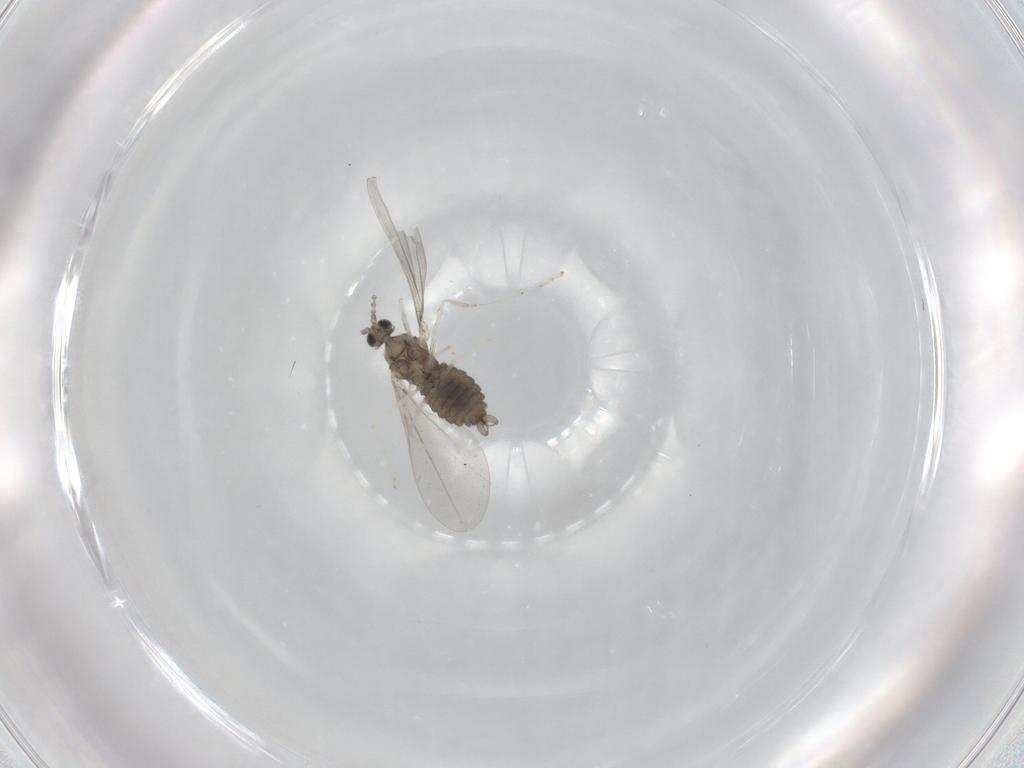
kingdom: Animalia
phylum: Arthropoda
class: Insecta
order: Diptera
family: Cecidomyiidae
